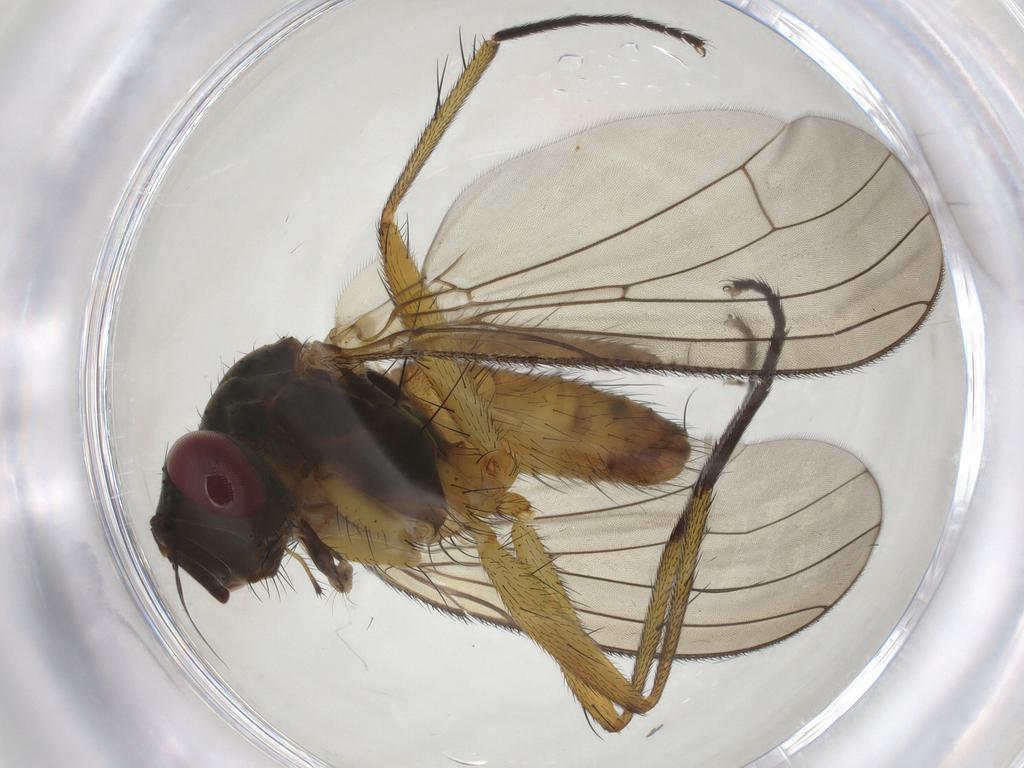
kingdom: Animalia
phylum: Arthropoda
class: Insecta
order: Diptera
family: Muscidae
